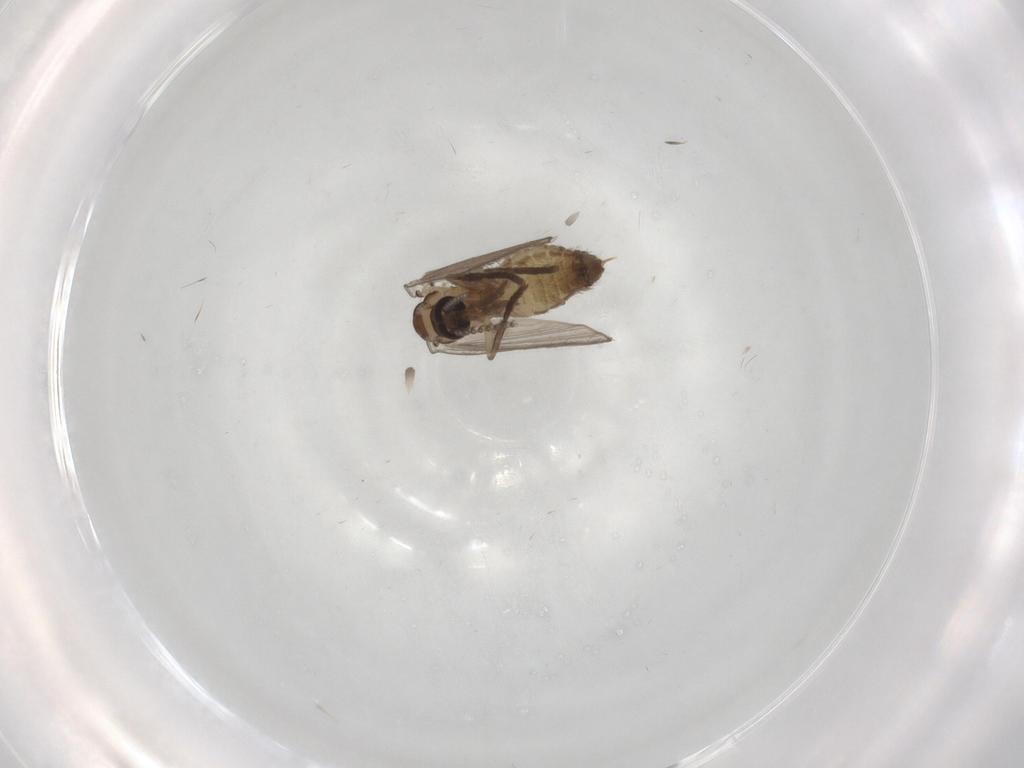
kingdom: Animalia
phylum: Arthropoda
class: Insecta
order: Diptera
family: Psychodidae
